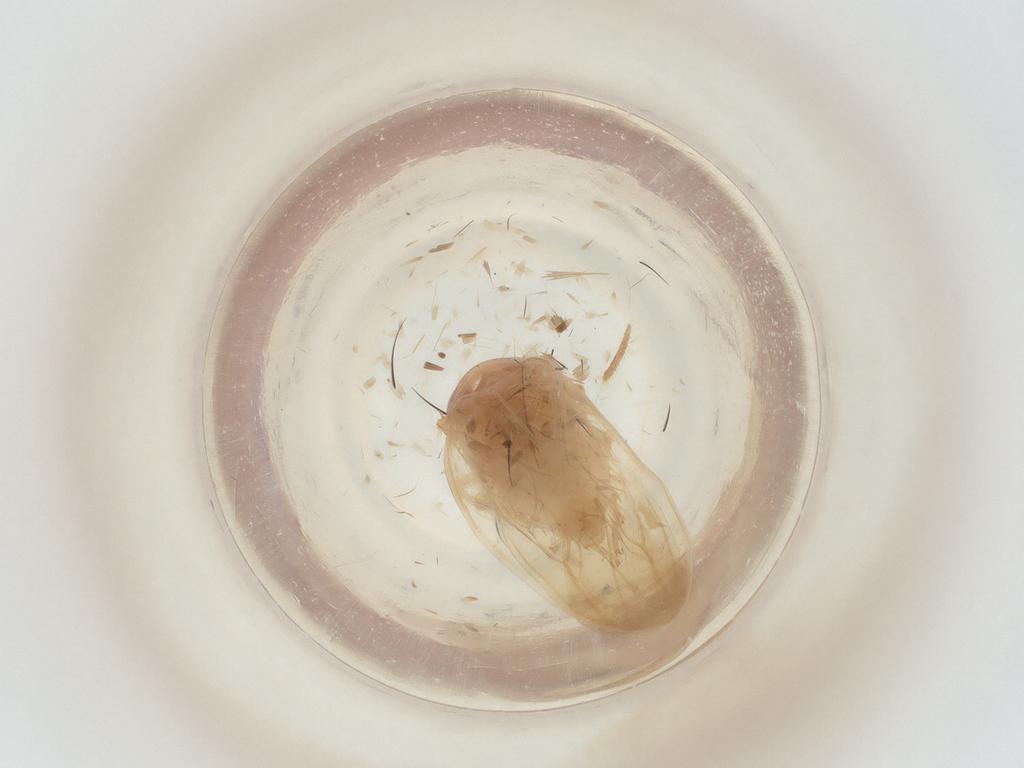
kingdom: Animalia
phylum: Arthropoda
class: Insecta
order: Hemiptera
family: Cicadellidae
